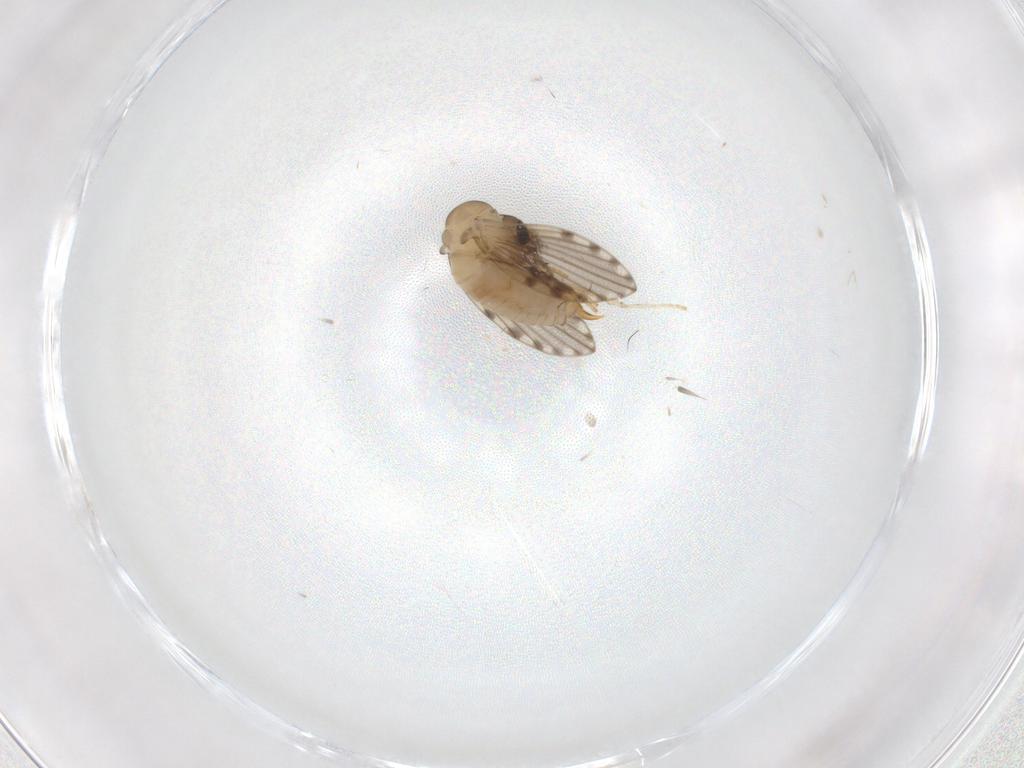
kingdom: Animalia
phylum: Arthropoda
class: Insecta
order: Diptera
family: Psychodidae
